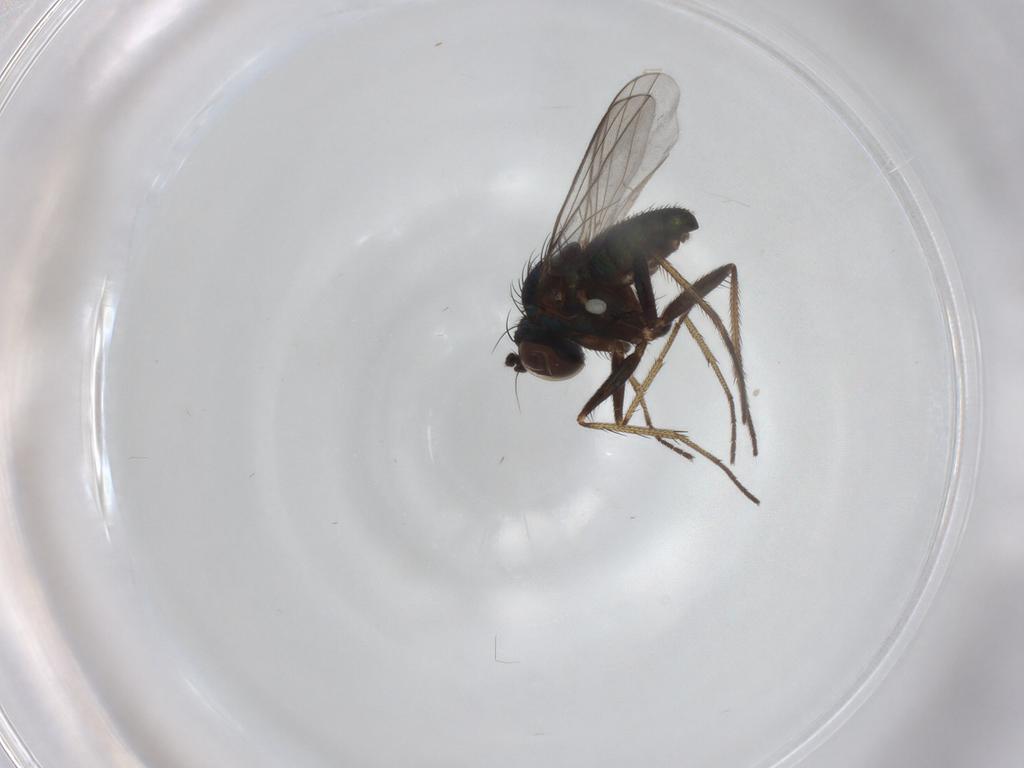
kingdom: Animalia
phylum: Arthropoda
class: Insecta
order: Diptera
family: Dolichopodidae
